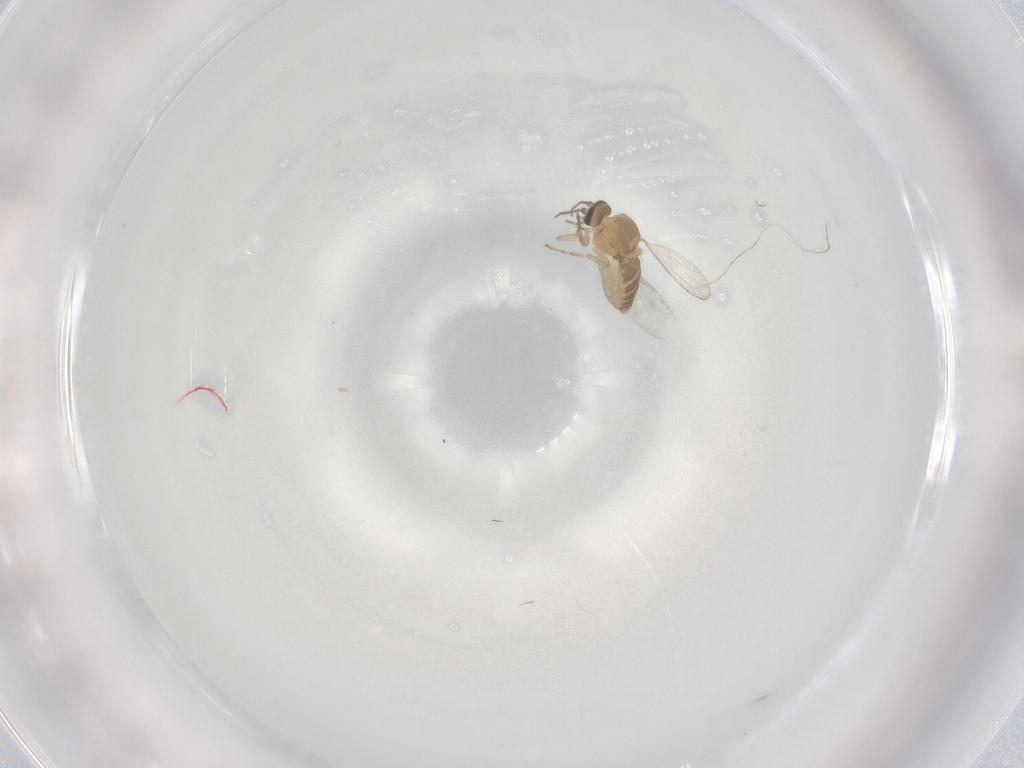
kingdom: Animalia
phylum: Arthropoda
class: Insecta
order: Diptera
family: Ceratopogonidae
